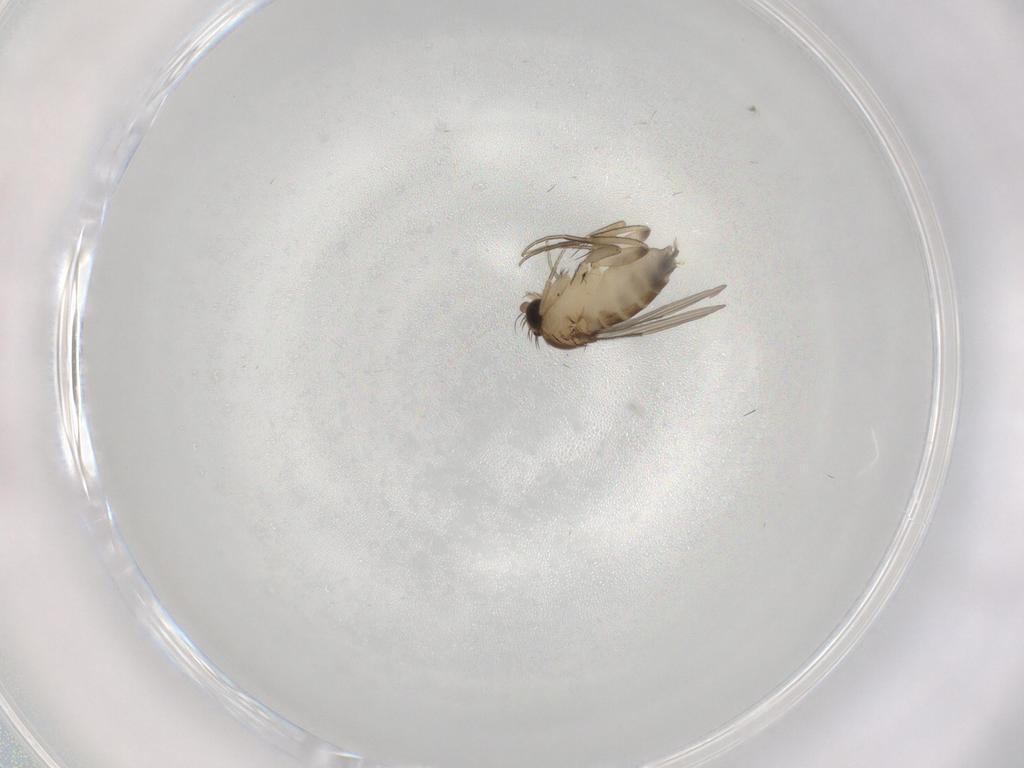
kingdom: Animalia
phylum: Arthropoda
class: Insecta
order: Diptera
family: Phoridae
